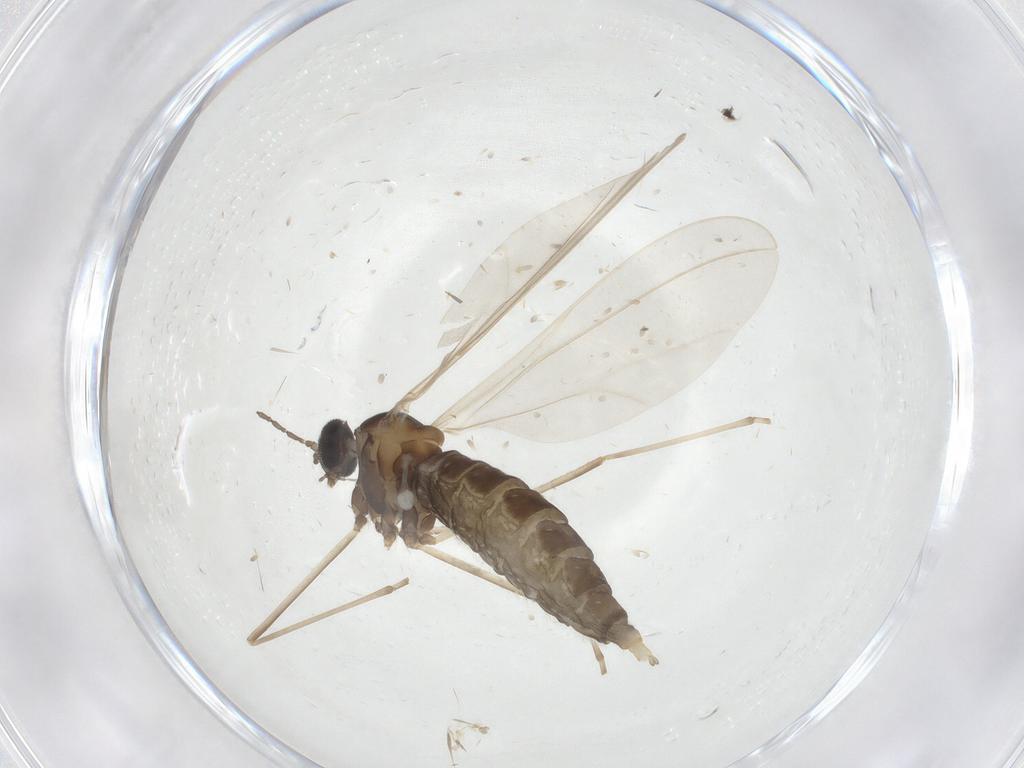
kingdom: Animalia
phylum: Arthropoda
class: Insecta
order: Diptera
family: Cecidomyiidae
